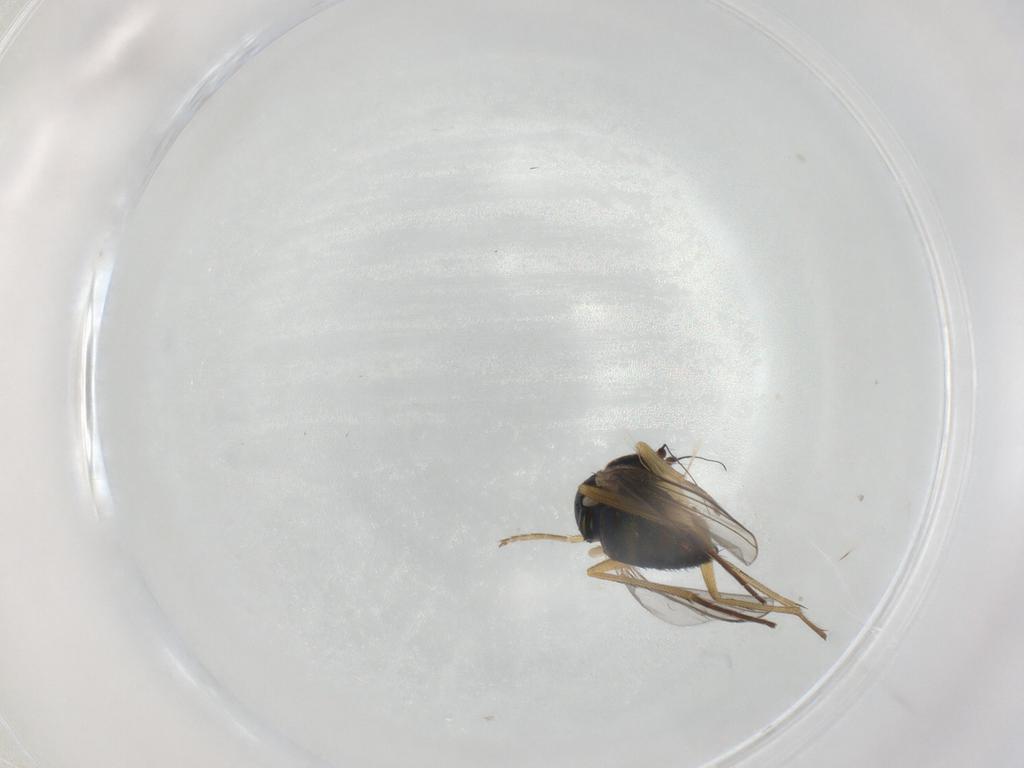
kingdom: Animalia
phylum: Arthropoda
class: Insecta
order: Diptera
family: Dolichopodidae
